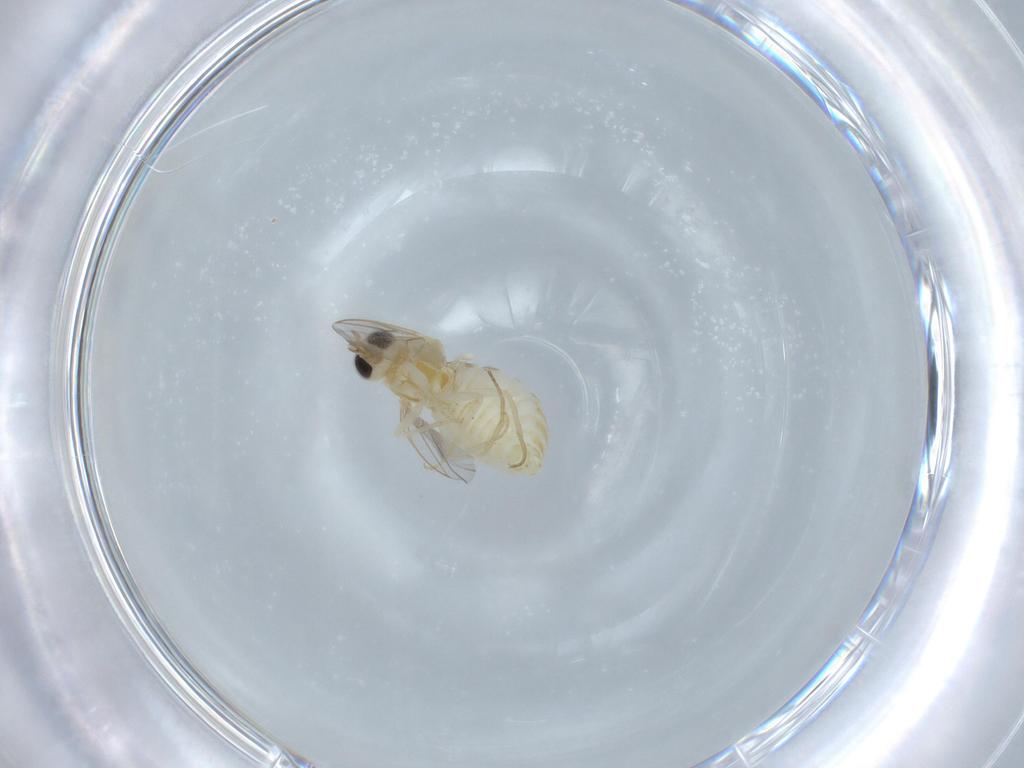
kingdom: Animalia
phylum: Arthropoda
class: Insecta
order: Diptera
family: Mythicomyiidae
